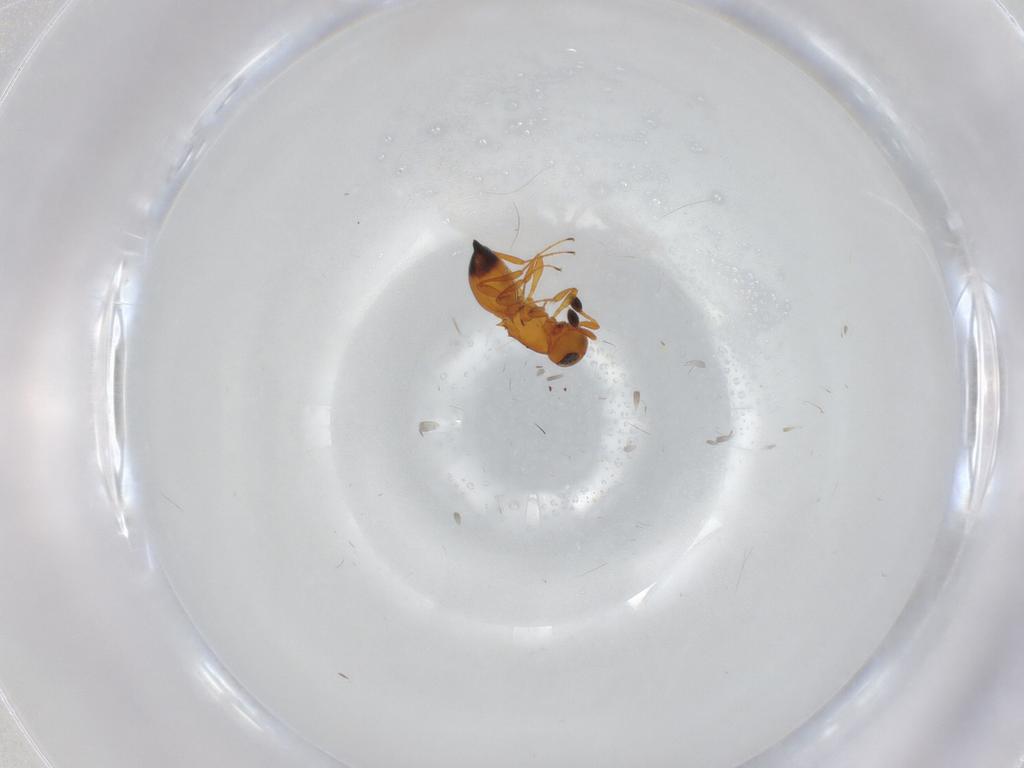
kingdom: Animalia
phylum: Arthropoda
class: Insecta
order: Hymenoptera
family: Platygastridae
